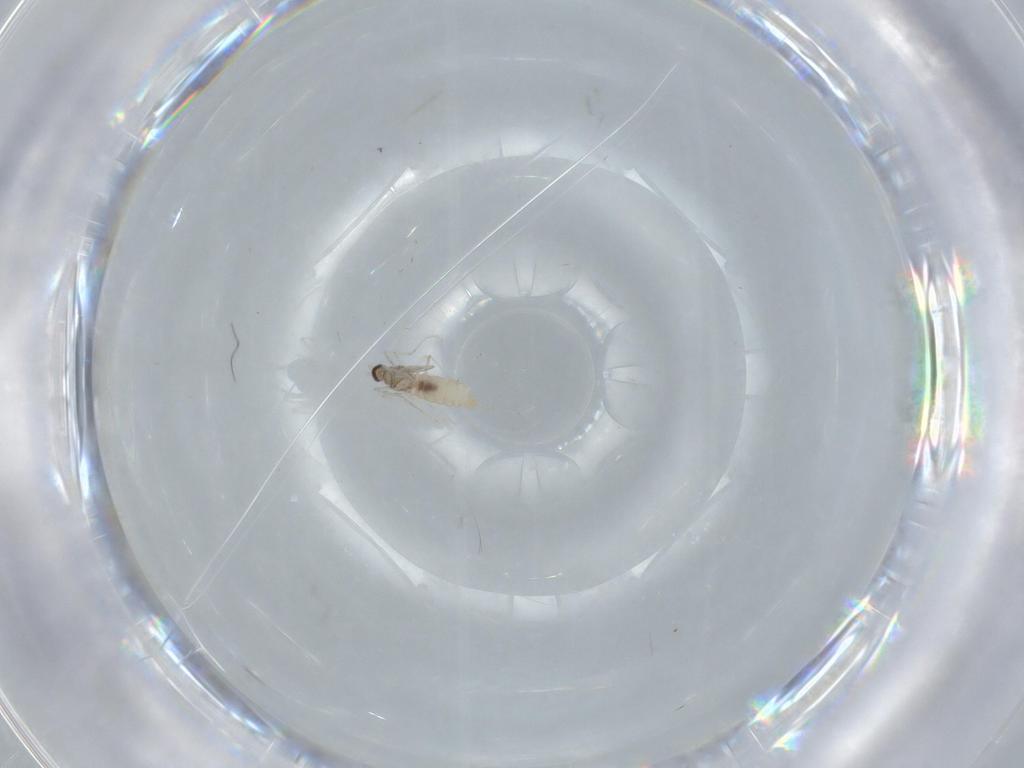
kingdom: Animalia
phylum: Arthropoda
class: Insecta
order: Diptera
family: Cecidomyiidae
